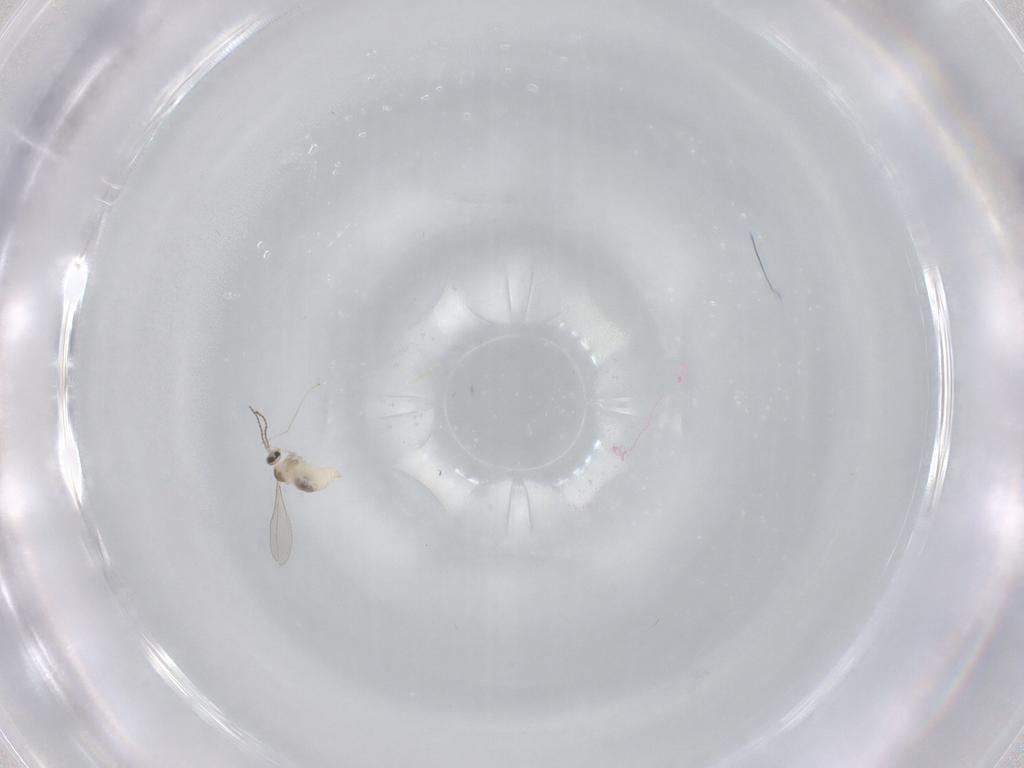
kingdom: Animalia
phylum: Arthropoda
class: Insecta
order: Diptera
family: Cecidomyiidae
